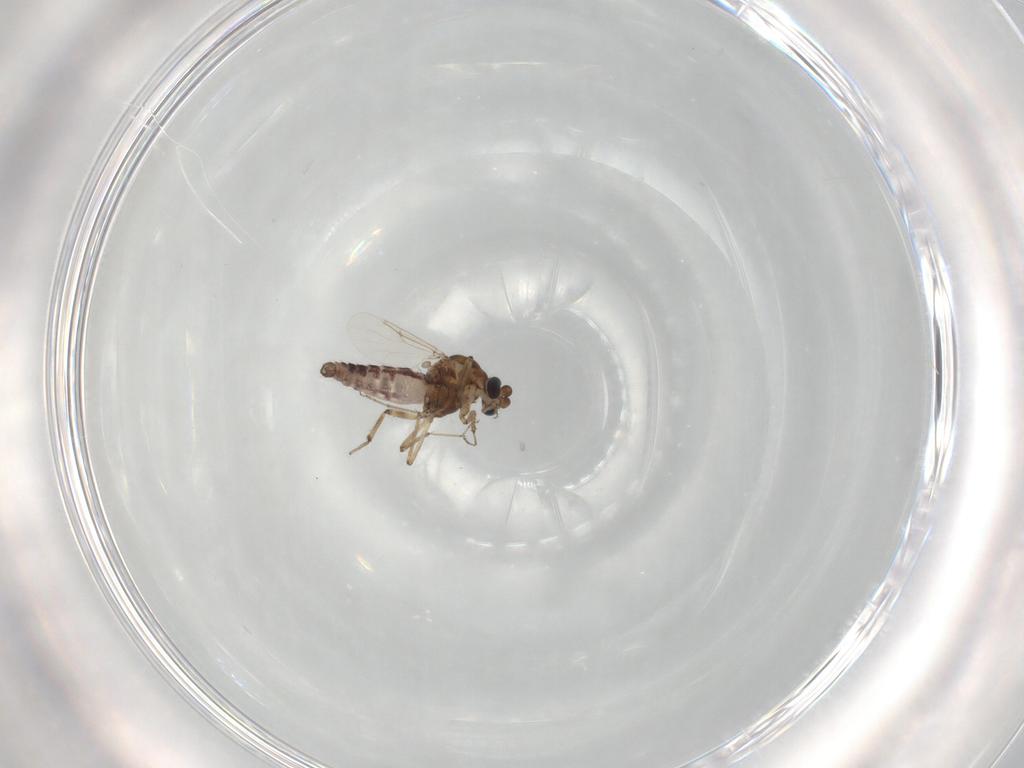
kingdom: Animalia
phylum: Arthropoda
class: Insecta
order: Diptera
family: Ceratopogonidae
